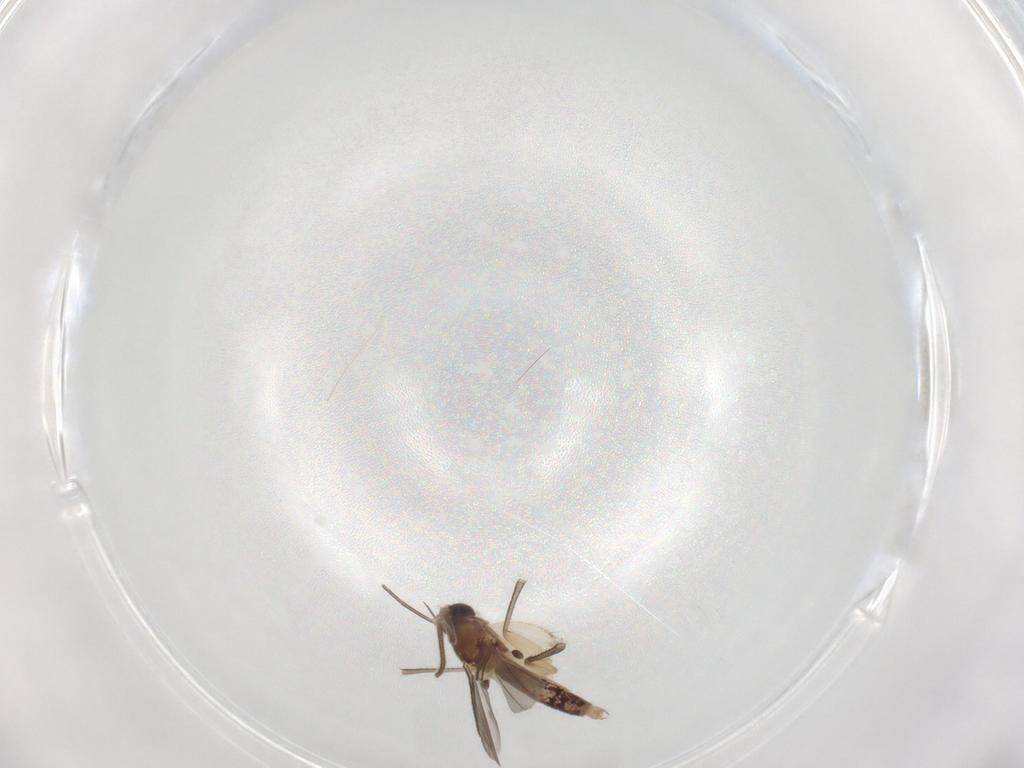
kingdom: Animalia
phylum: Arthropoda
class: Insecta
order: Diptera
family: Mycetophilidae
